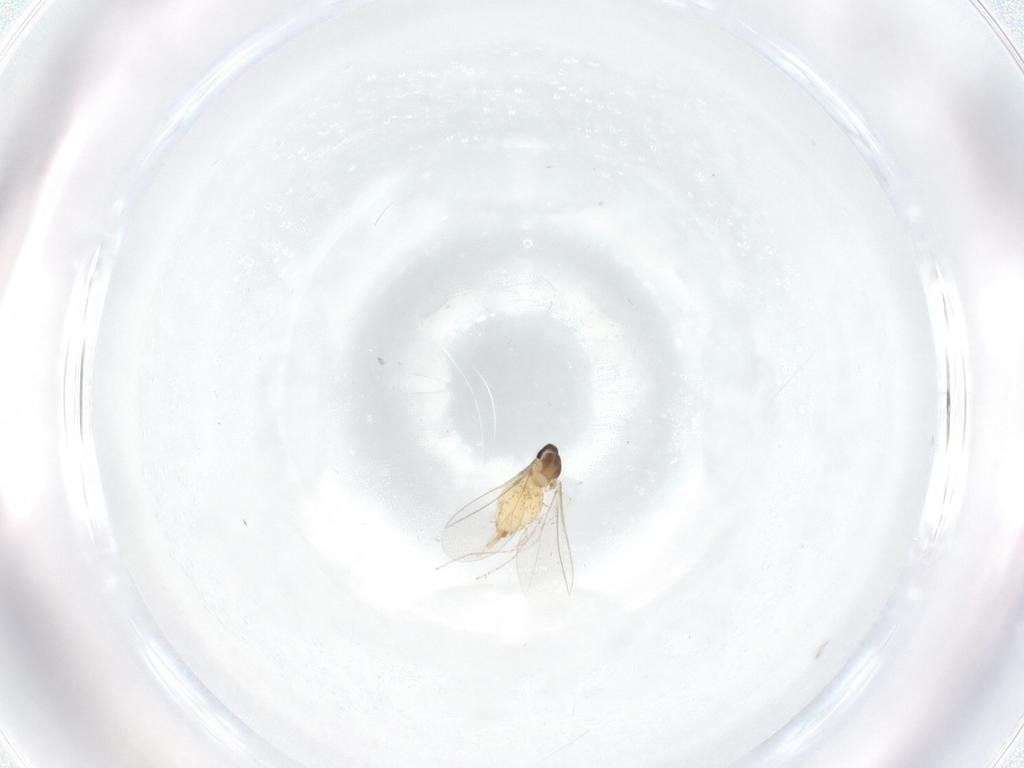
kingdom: Animalia
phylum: Arthropoda
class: Insecta
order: Diptera
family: Cecidomyiidae
